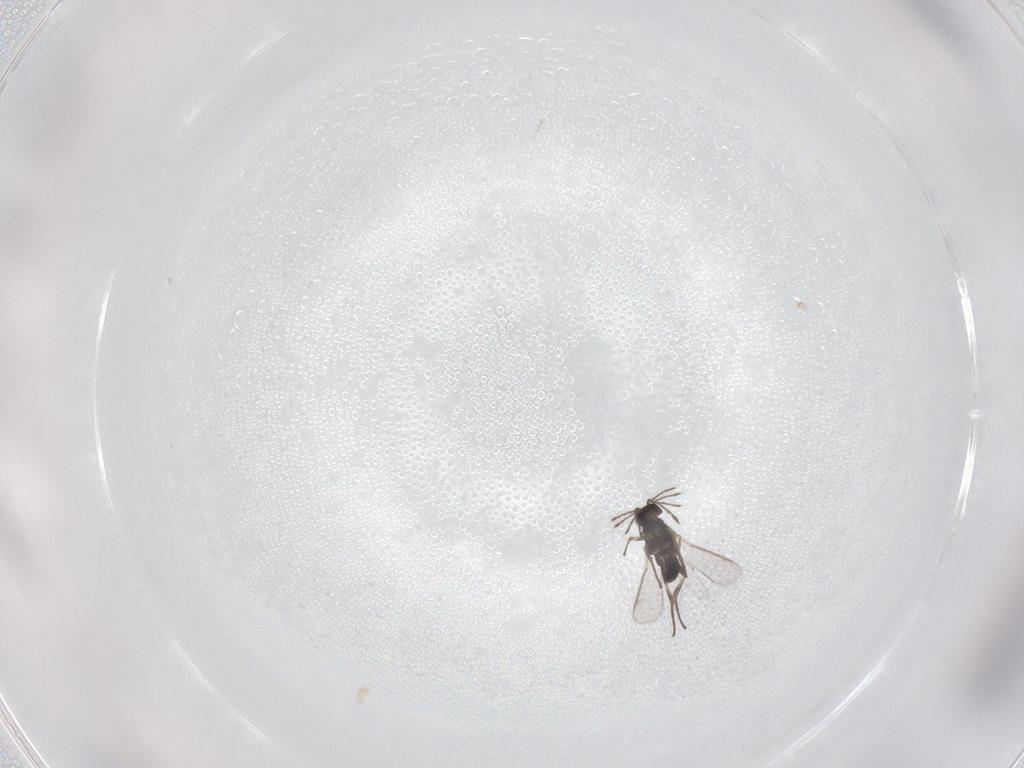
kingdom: Animalia
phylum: Arthropoda
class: Insecta
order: Hymenoptera
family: Eulophidae
